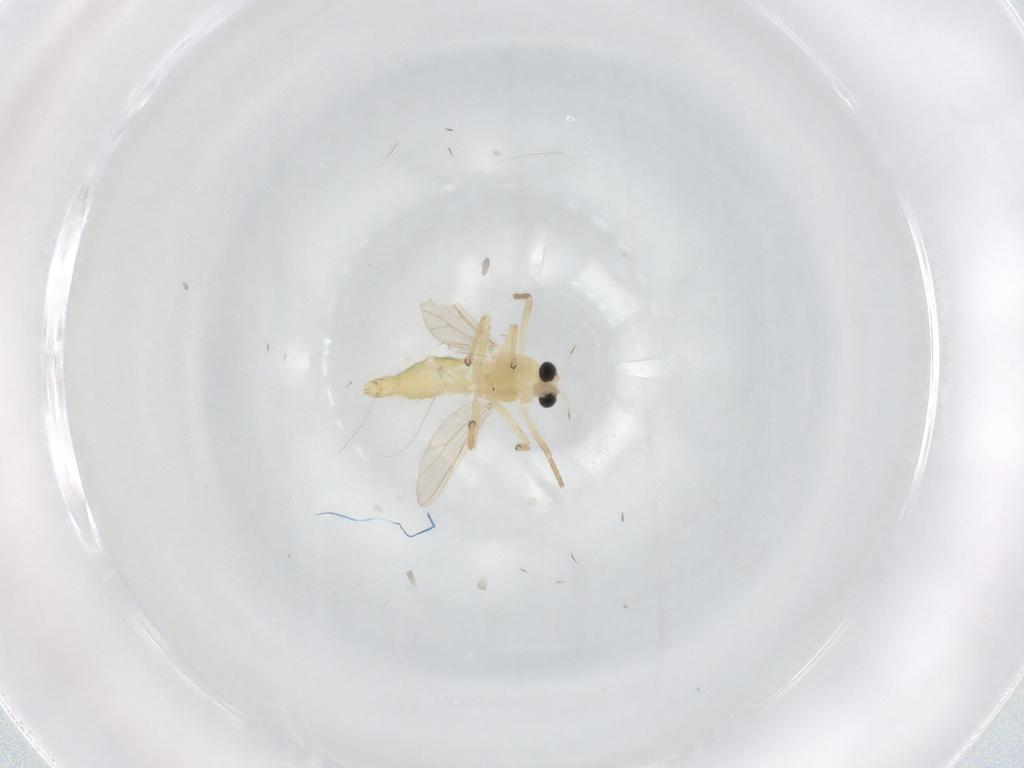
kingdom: Animalia
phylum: Arthropoda
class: Insecta
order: Diptera
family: Chironomidae
